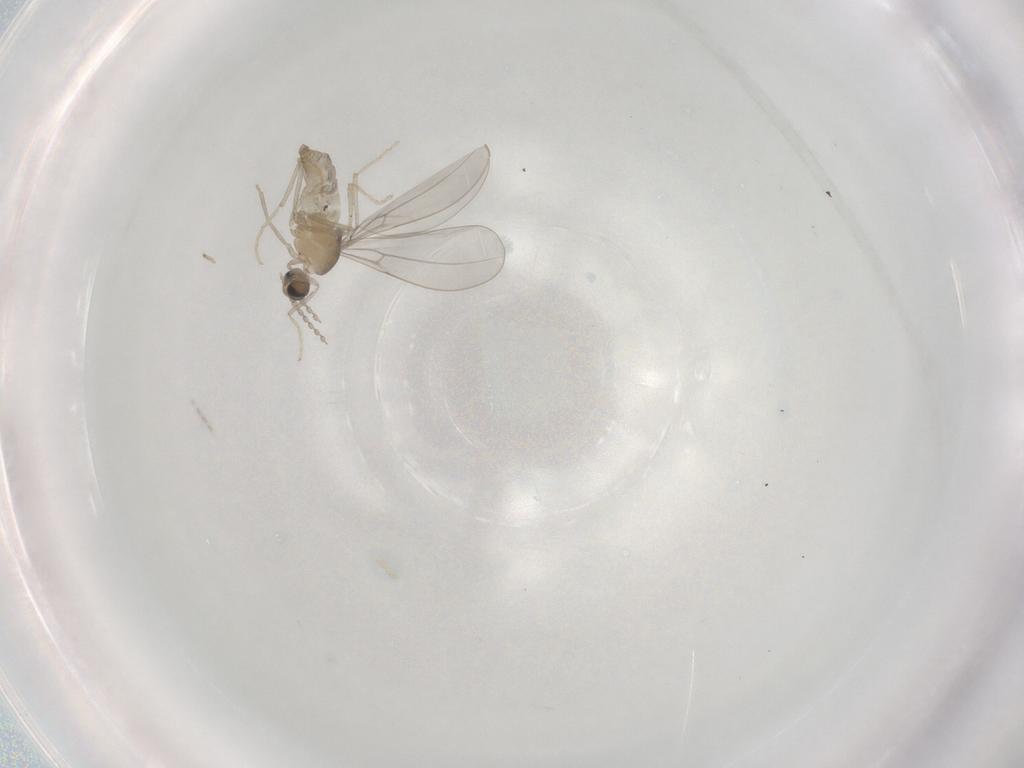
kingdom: Animalia
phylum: Arthropoda
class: Insecta
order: Diptera
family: Cecidomyiidae
